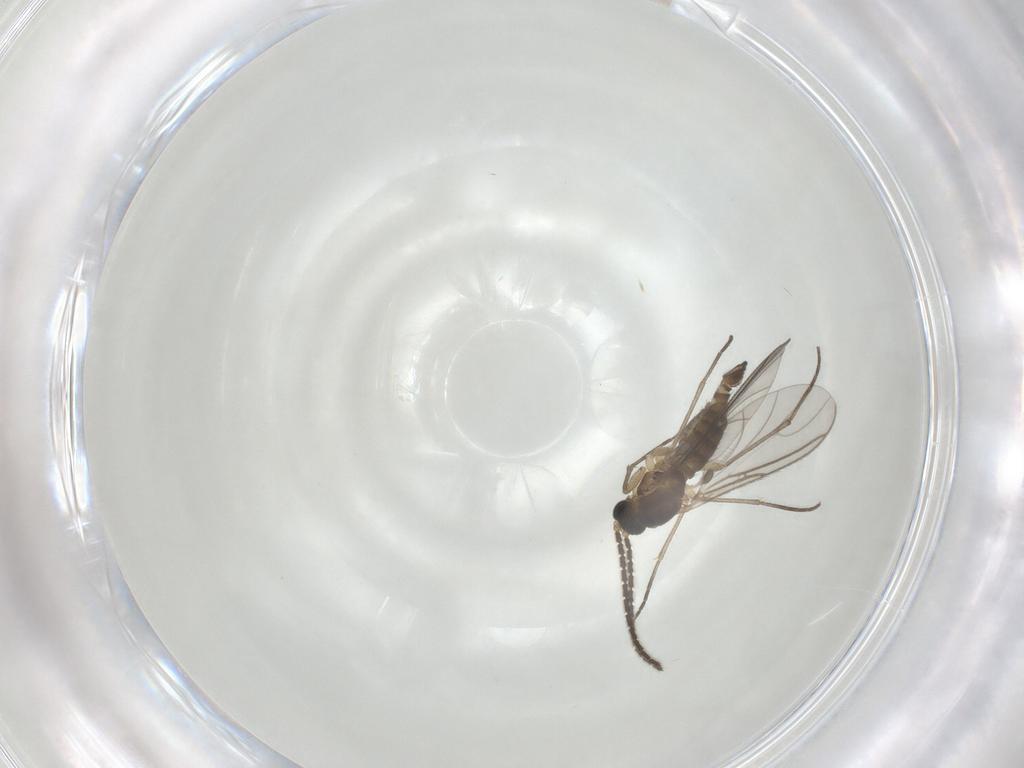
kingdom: Animalia
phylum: Arthropoda
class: Insecta
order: Diptera
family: Sciaridae
